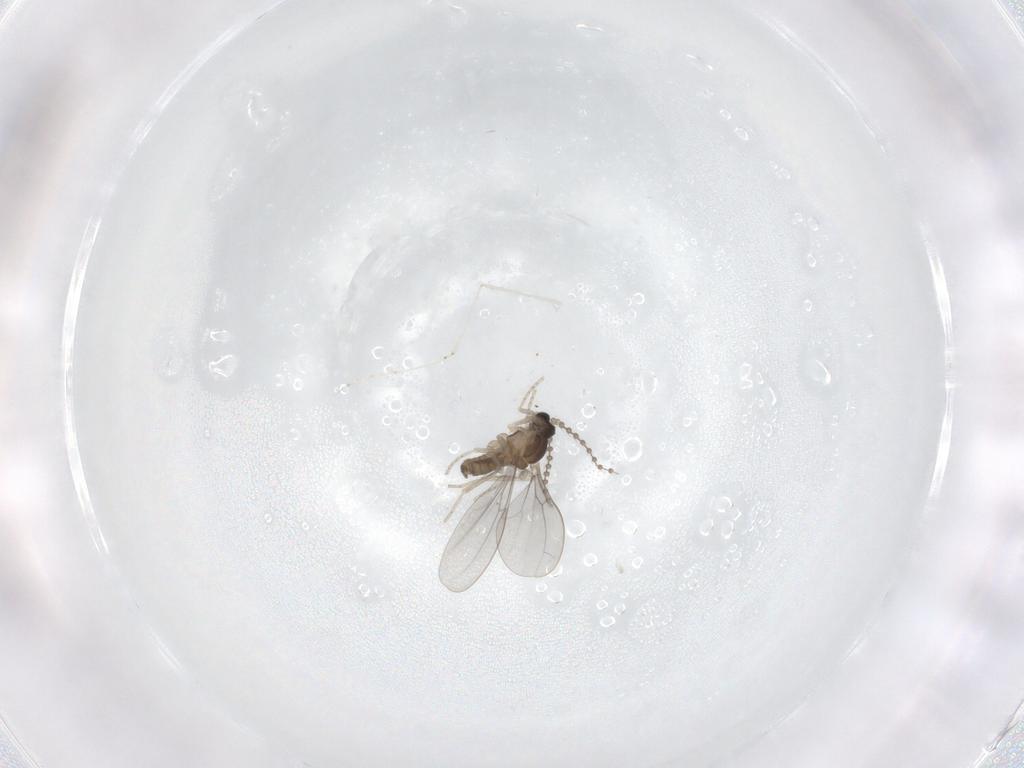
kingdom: Animalia
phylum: Arthropoda
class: Insecta
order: Diptera
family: Cecidomyiidae
